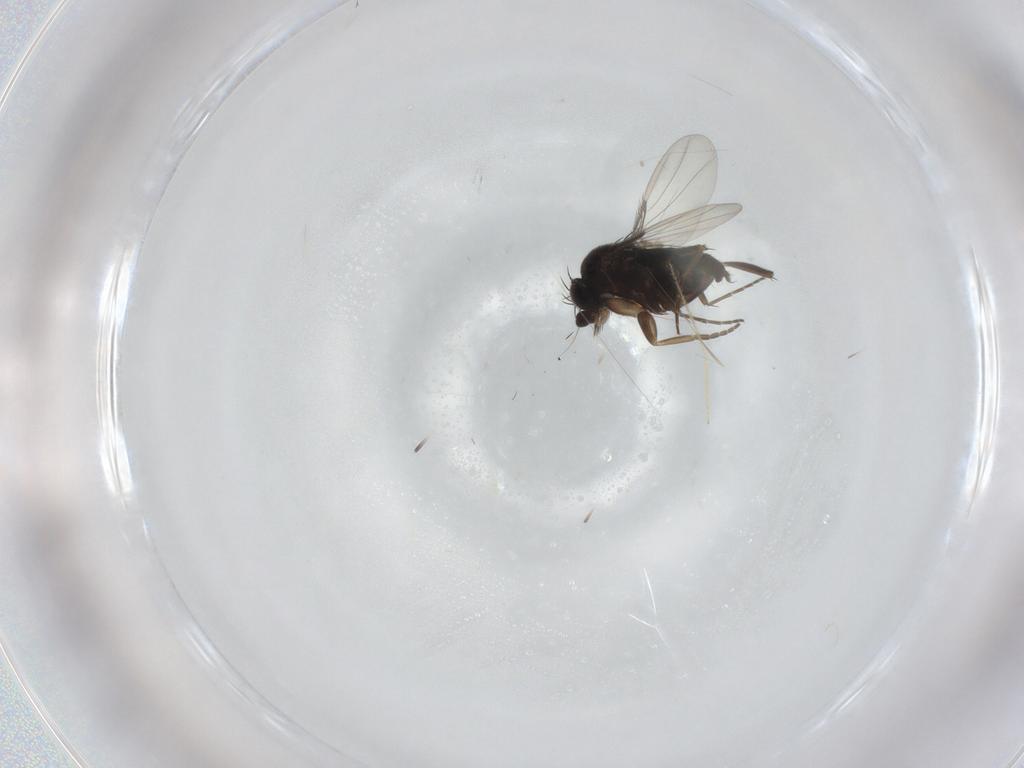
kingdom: Animalia
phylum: Arthropoda
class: Insecta
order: Diptera
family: Phoridae
